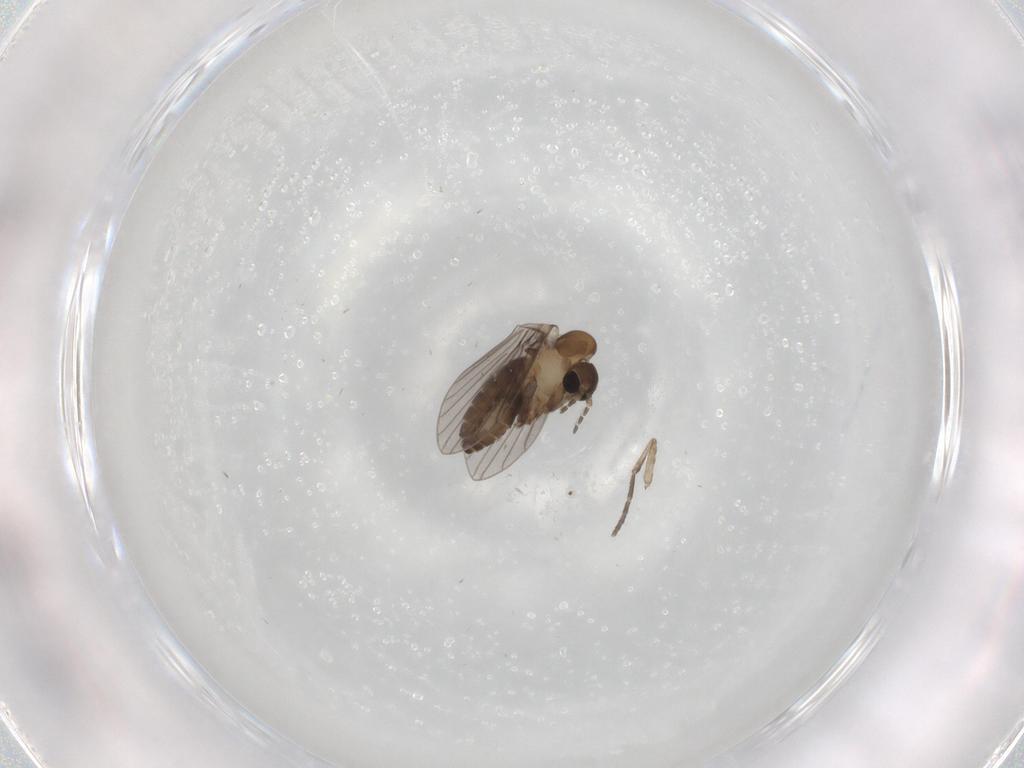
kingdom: Animalia
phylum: Arthropoda
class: Insecta
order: Diptera
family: Psychodidae
